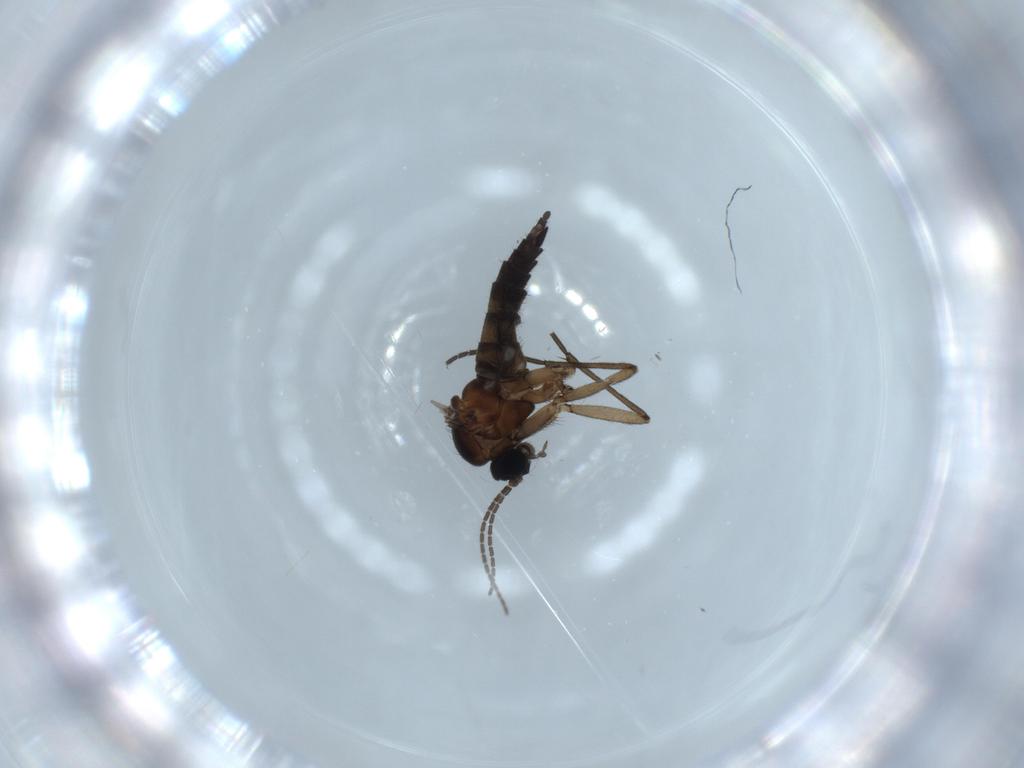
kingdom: Animalia
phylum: Arthropoda
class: Insecta
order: Diptera
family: Sciaridae
